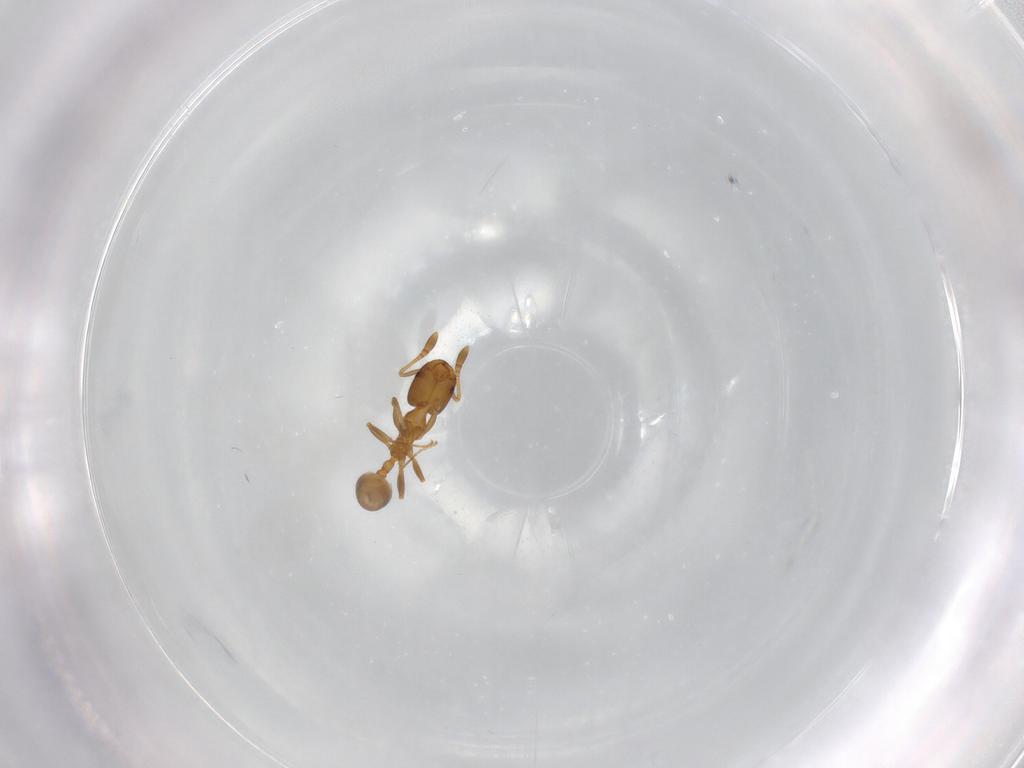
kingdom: Animalia
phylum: Arthropoda
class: Insecta
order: Hymenoptera
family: Formicidae
